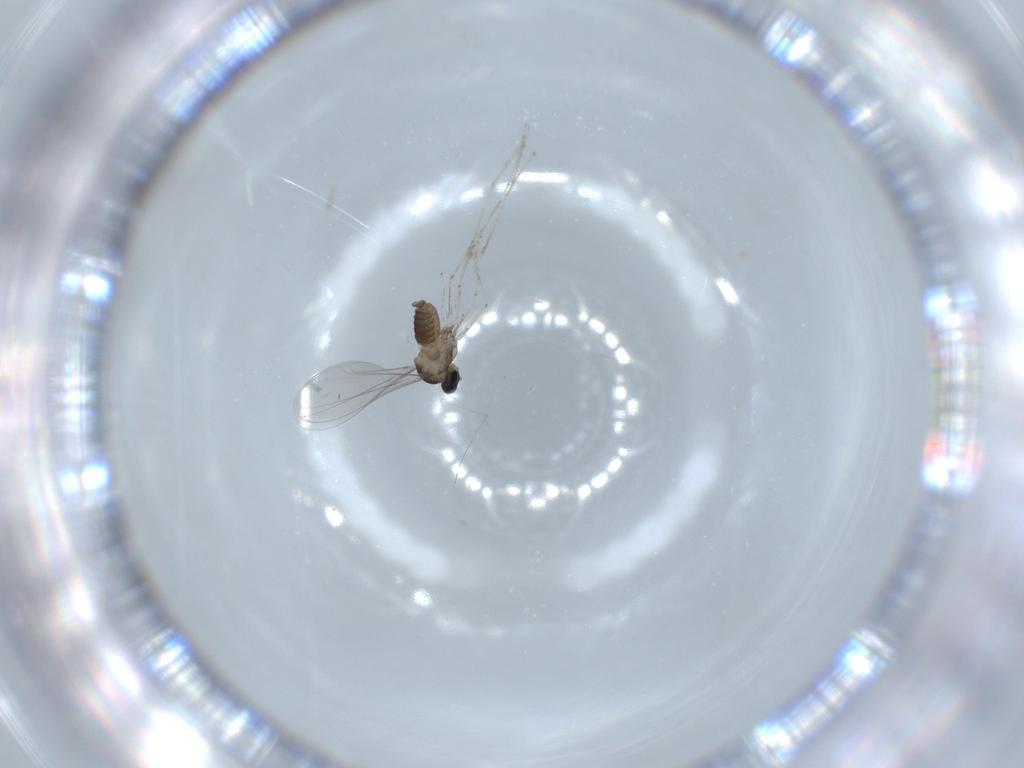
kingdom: Animalia
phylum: Arthropoda
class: Insecta
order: Diptera
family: Cecidomyiidae
